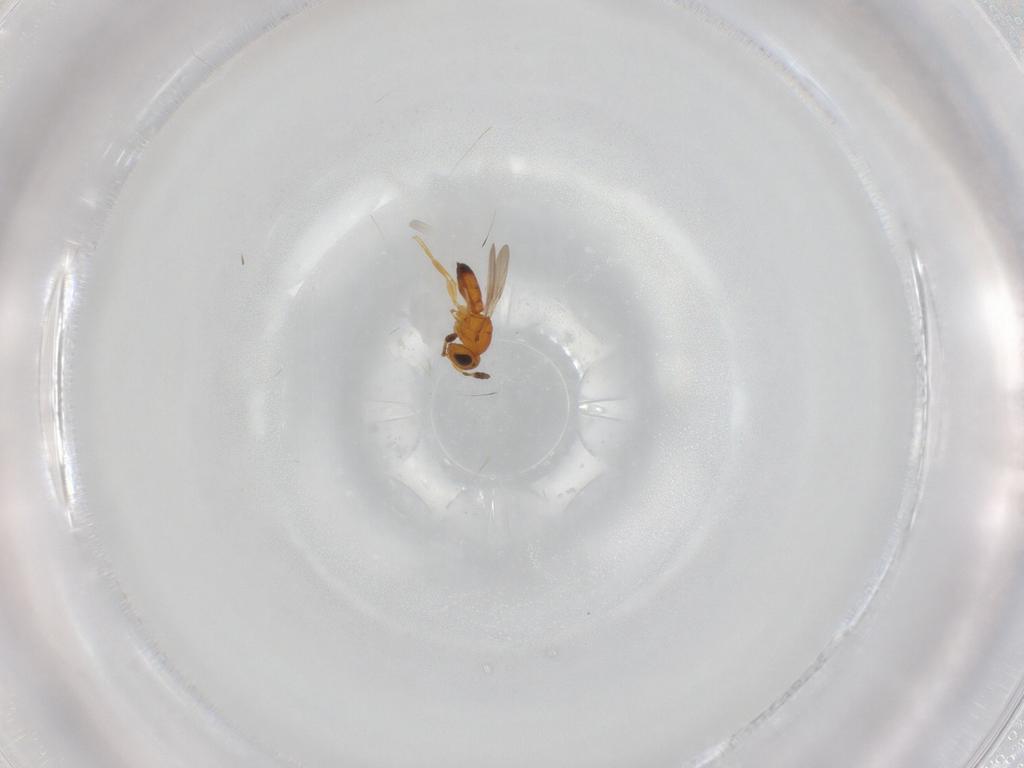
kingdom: Animalia
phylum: Arthropoda
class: Insecta
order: Hymenoptera
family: Scelionidae
